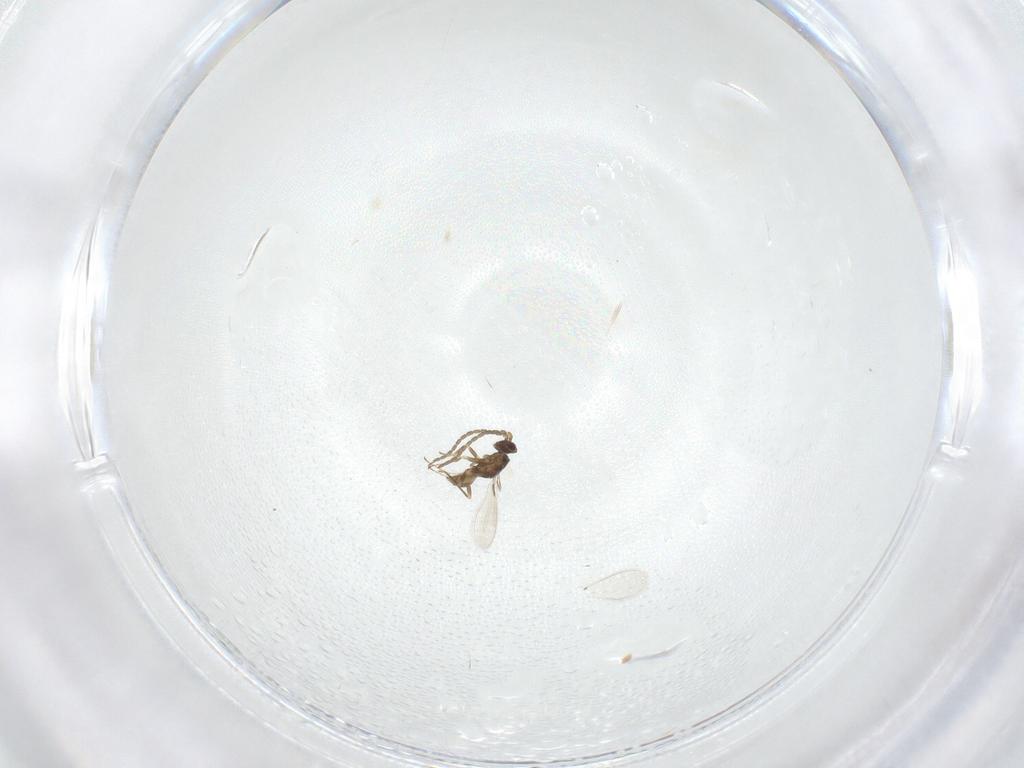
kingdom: Animalia
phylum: Arthropoda
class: Insecta
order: Hymenoptera
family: Mymaridae
